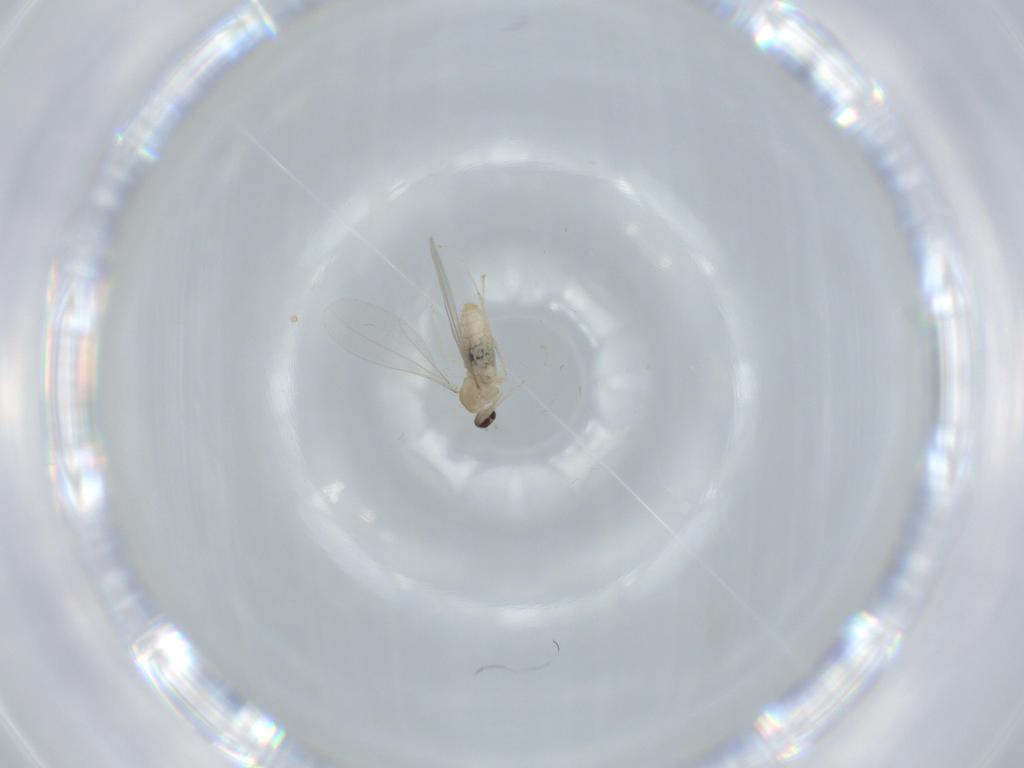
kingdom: Animalia
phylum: Arthropoda
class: Insecta
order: Diptera
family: Cecidomyiidae
